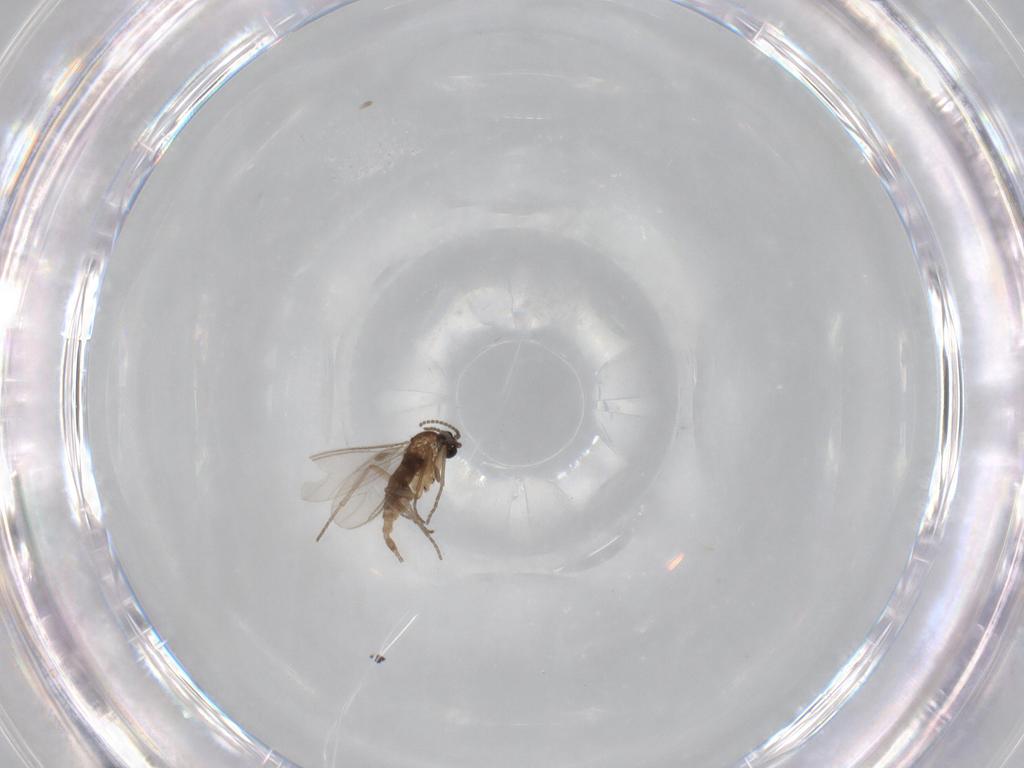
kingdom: Animalia
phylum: Arthropoda
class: Insecta
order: Diptera
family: Sciaridae
